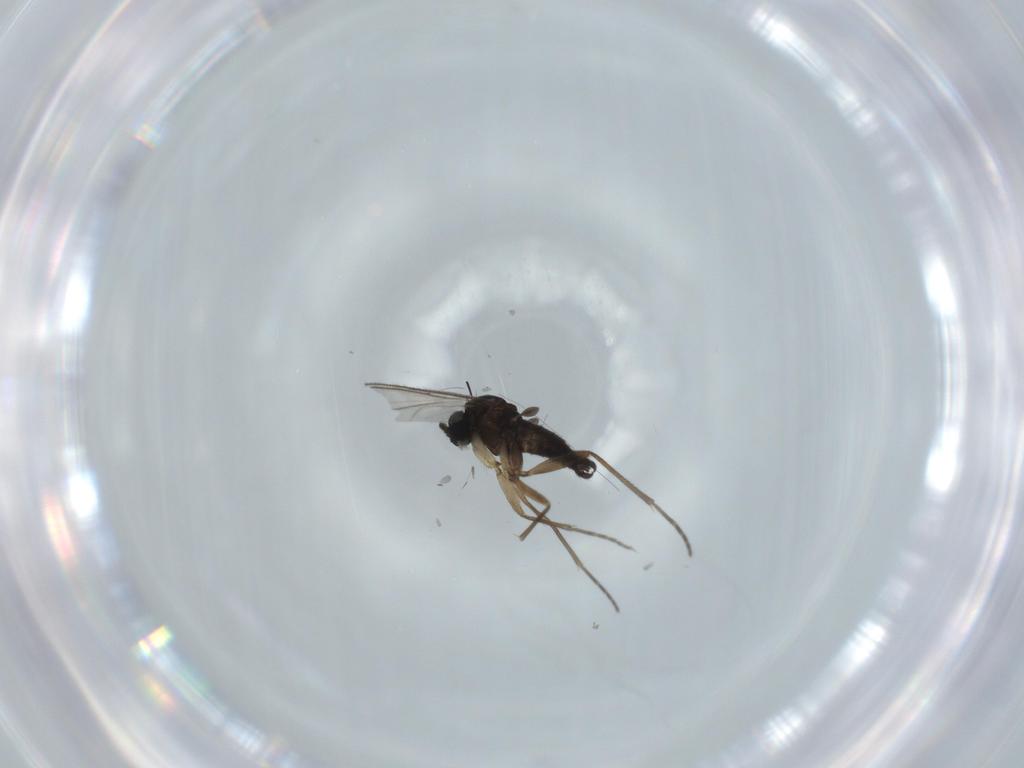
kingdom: Animalia
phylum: Arthropoda
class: Insecta
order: Diptera
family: Sciaridae
